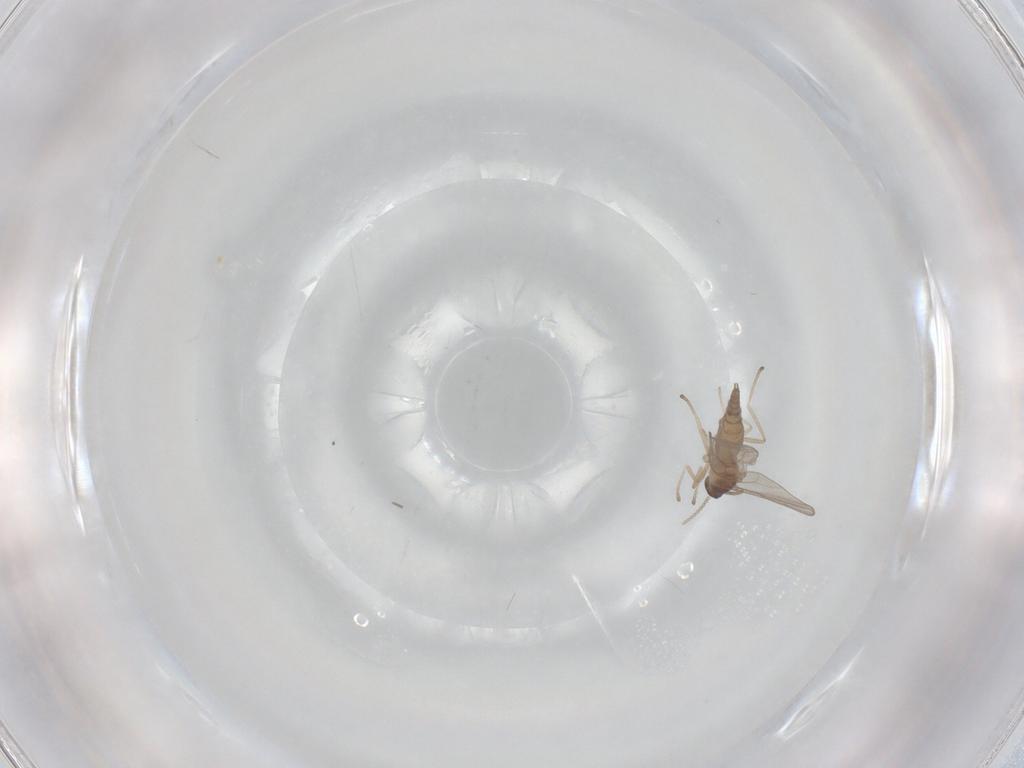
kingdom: Animalia
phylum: Arthropoda
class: Insecta
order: Diptera
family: Cecidomyiidae
